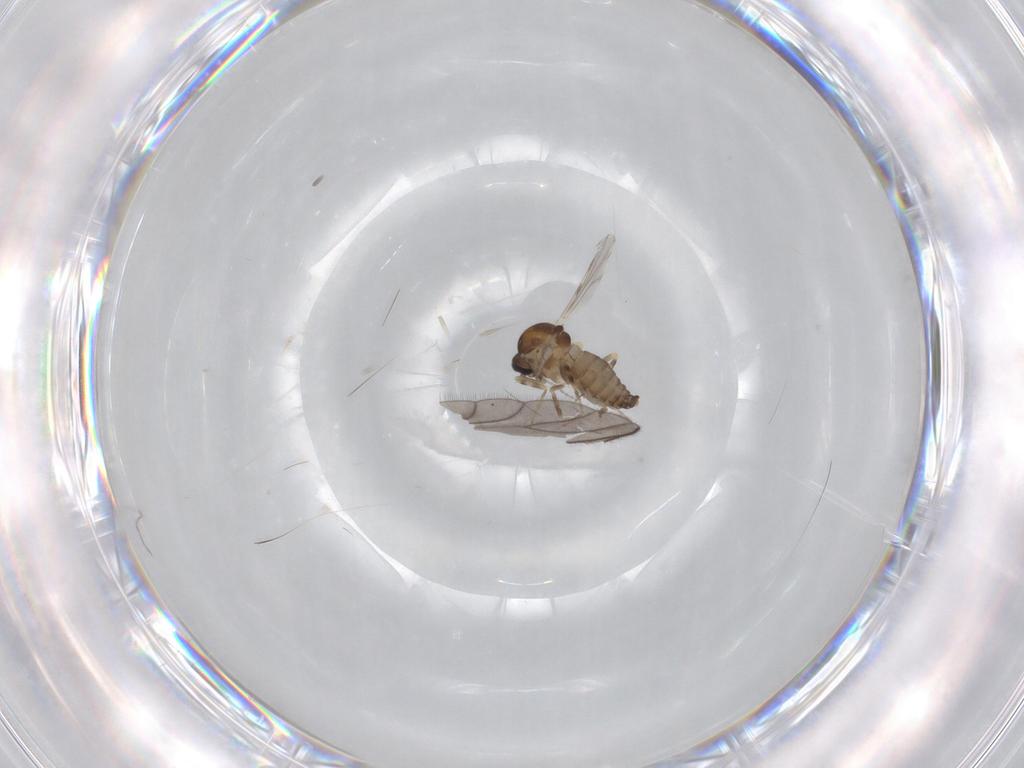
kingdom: Animalia
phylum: Arthropoda
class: Insecta
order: Diptera
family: Ceratopogonidae
